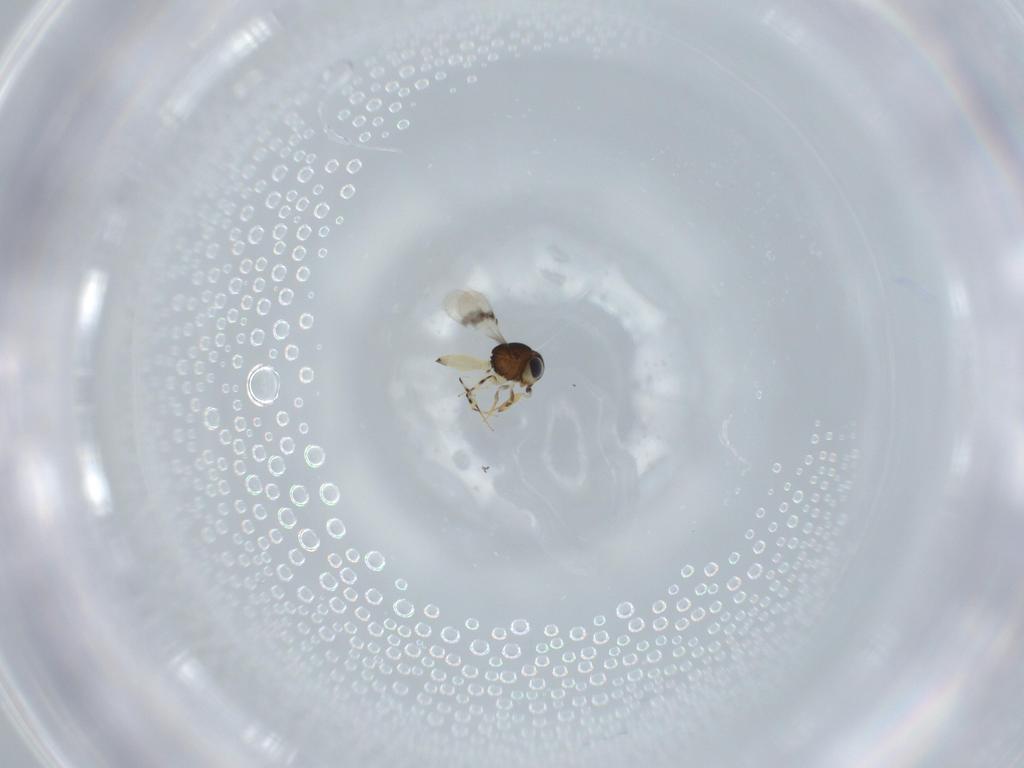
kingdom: Animalia
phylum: Arthropoda
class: Insecta
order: Hymenoptera
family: Scelionidae
